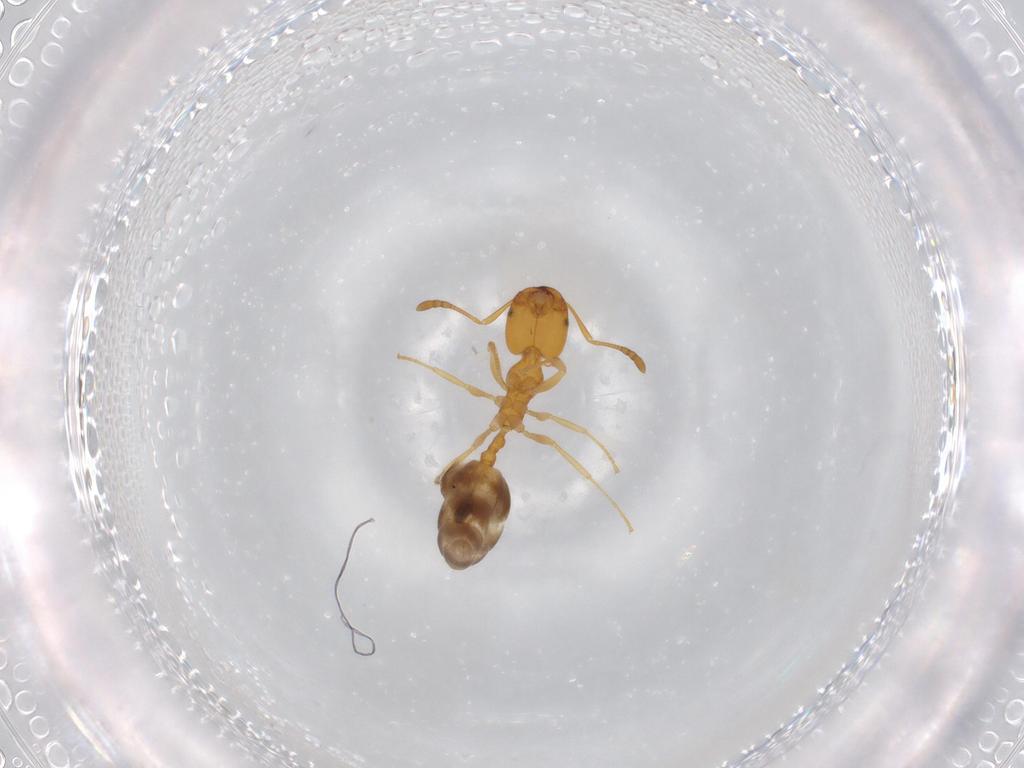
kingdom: Animalia
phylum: Arthropoda
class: Insecta
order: Hymenoptera
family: Formicidae
